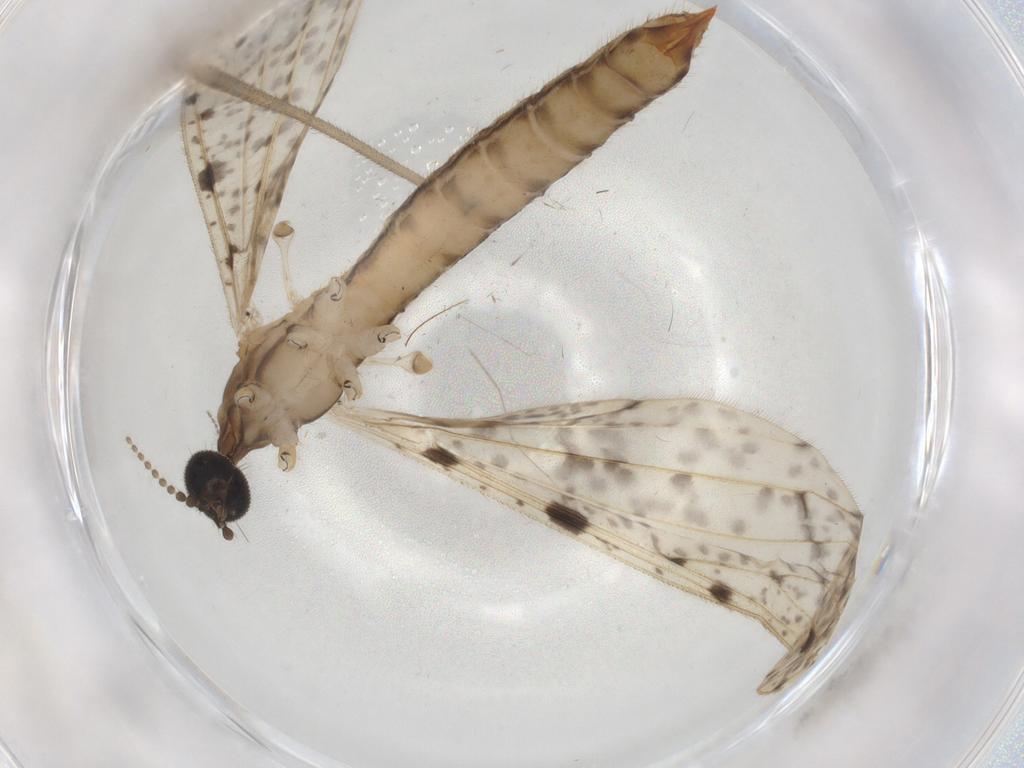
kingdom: Animalia
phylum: Arthropoda
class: Insecta
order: Diptera
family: Limoniidae
